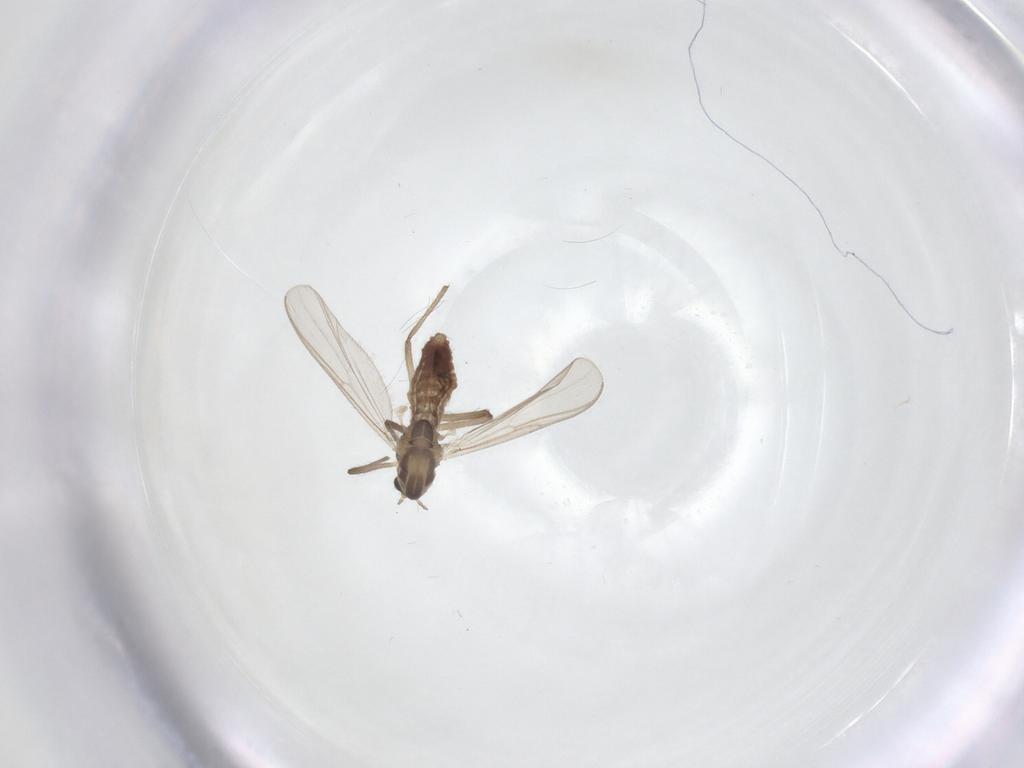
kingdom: Animalia
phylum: Arthropoda
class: Insecta
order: Diptera
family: Chironomidae
